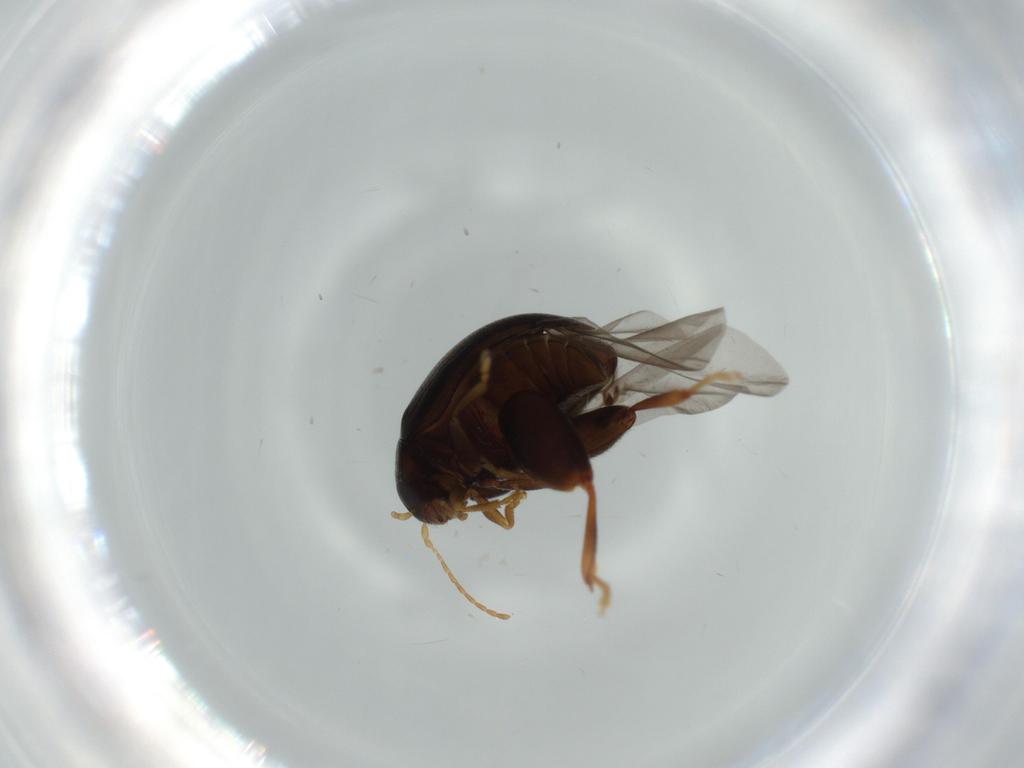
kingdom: Animalia
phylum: Arthropoda
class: Insecta
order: Coleoptera
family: Chrysomelidae
